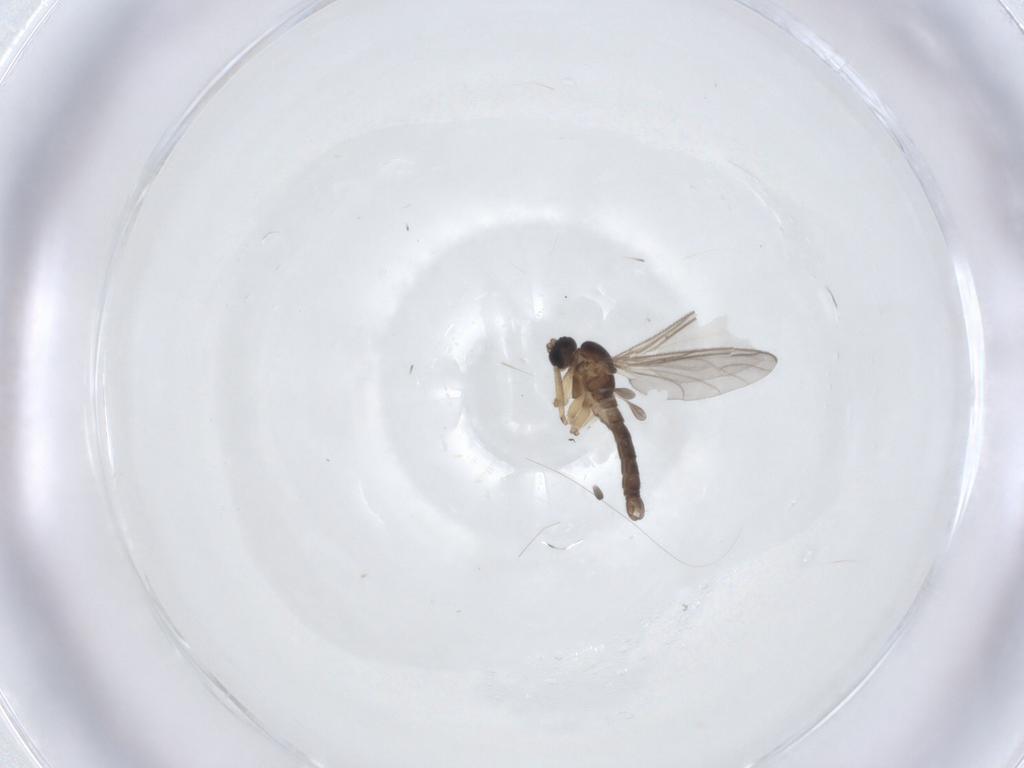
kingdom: Animalia
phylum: Arthropoda
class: Insecta
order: Diptera
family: Sciaridae
